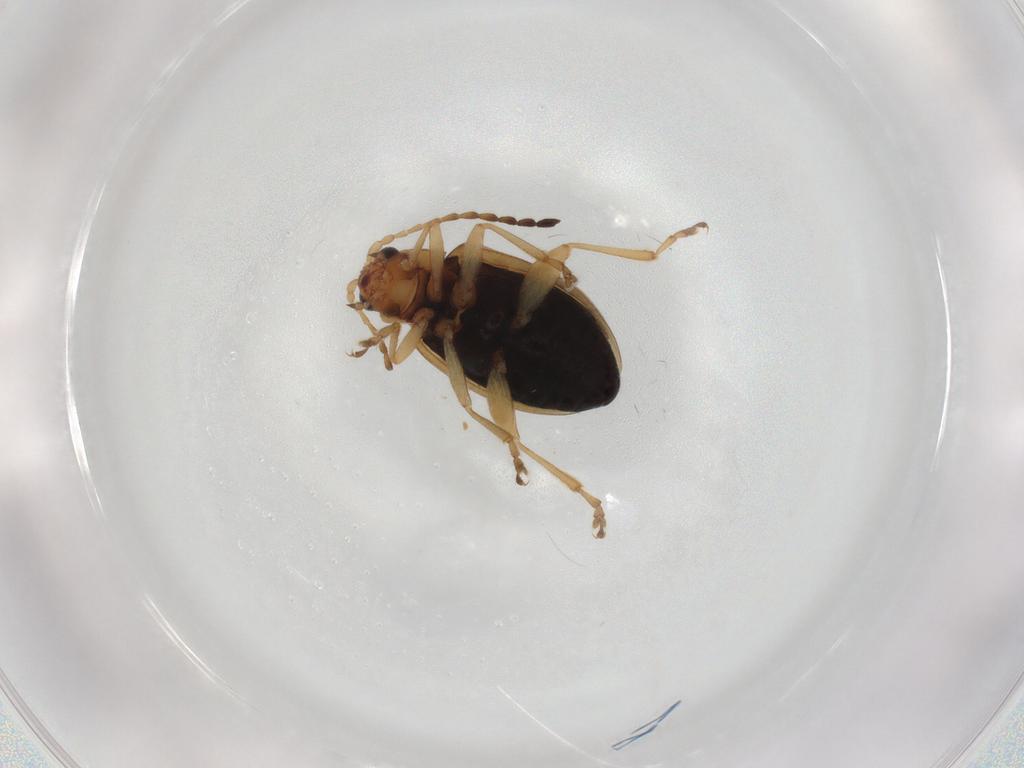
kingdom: Animalia
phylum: Arthropoda
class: Insecta
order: Coleoptera
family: Chrysomelidae
